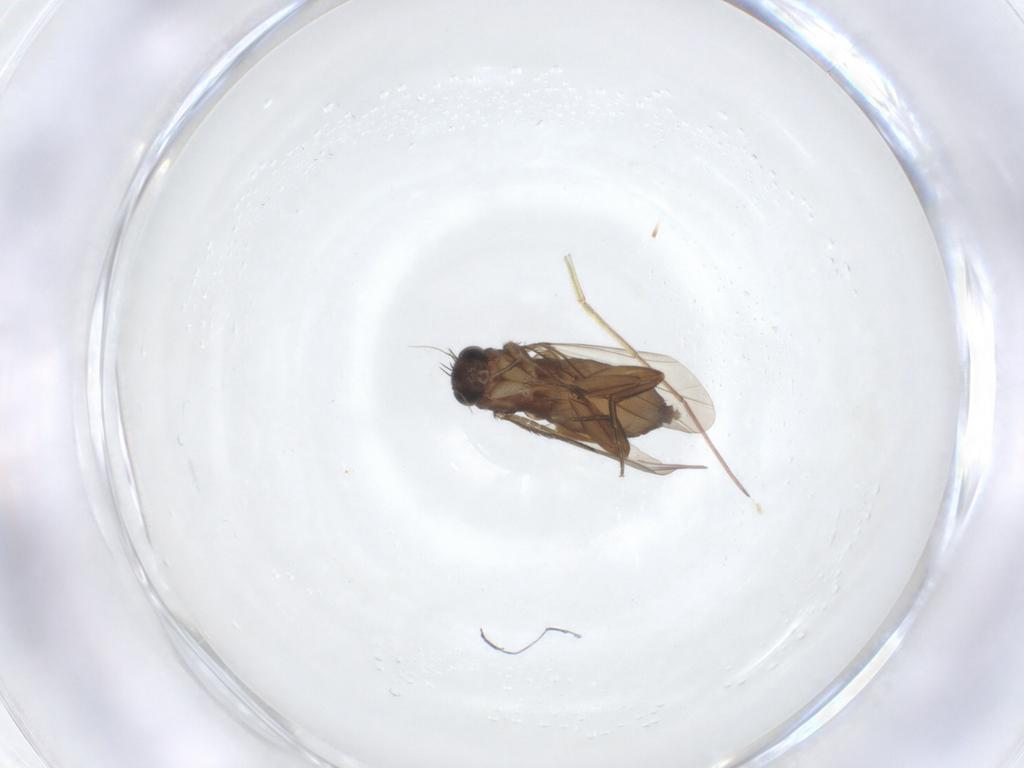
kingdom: Animalia
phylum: Arthropoda
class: Insecta
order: Diptera
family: Phoridae
